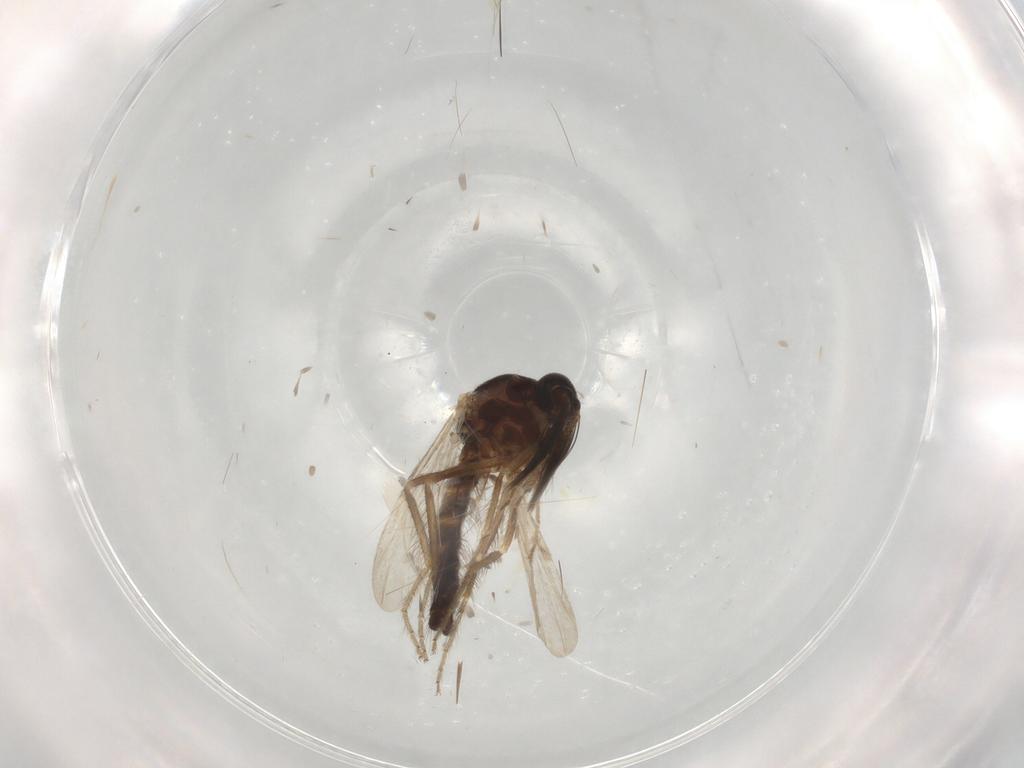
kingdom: Animalia
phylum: Arthropoda
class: Insecta
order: Diptera
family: Ceratopogonidae
